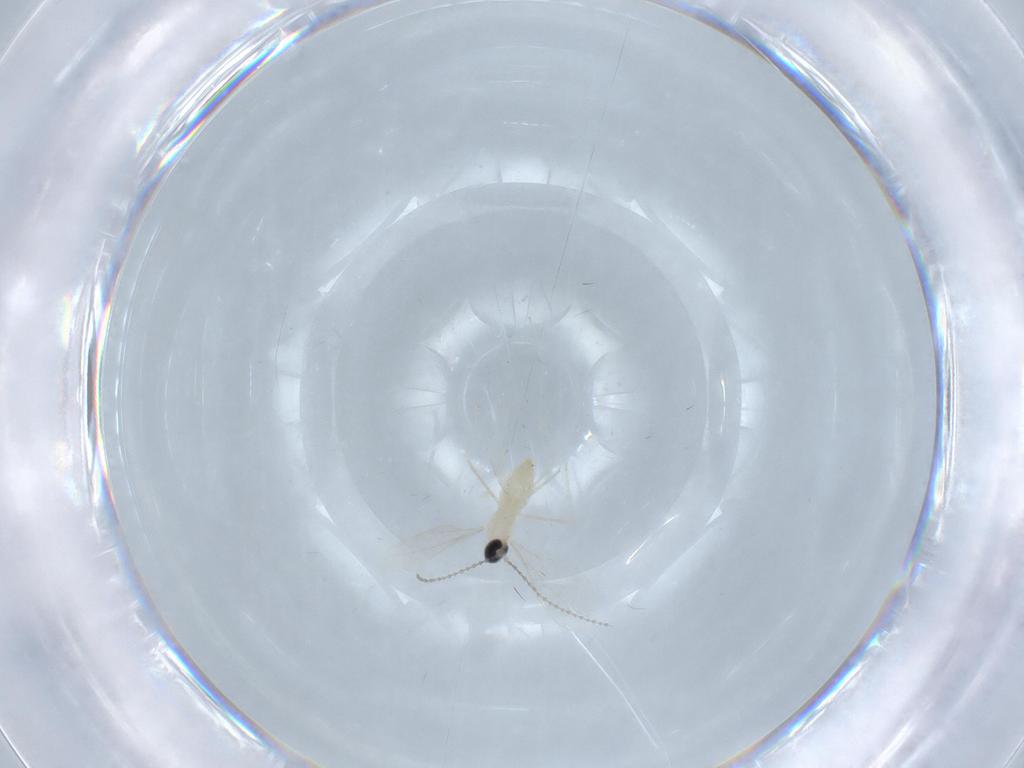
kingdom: Animalia
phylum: Arthropoda
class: Insecta
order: Diptera
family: Cecidomyiidae
